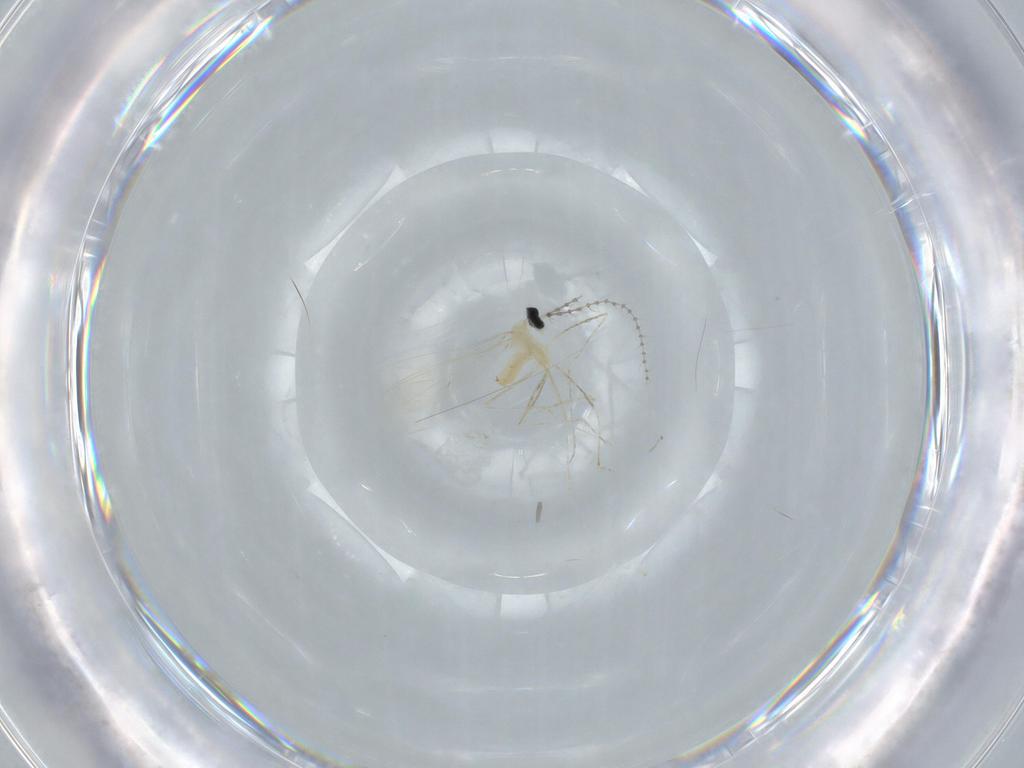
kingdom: Animalia
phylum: Arthropoda
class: Insecta
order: Diptera
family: Cecidomyiidae
